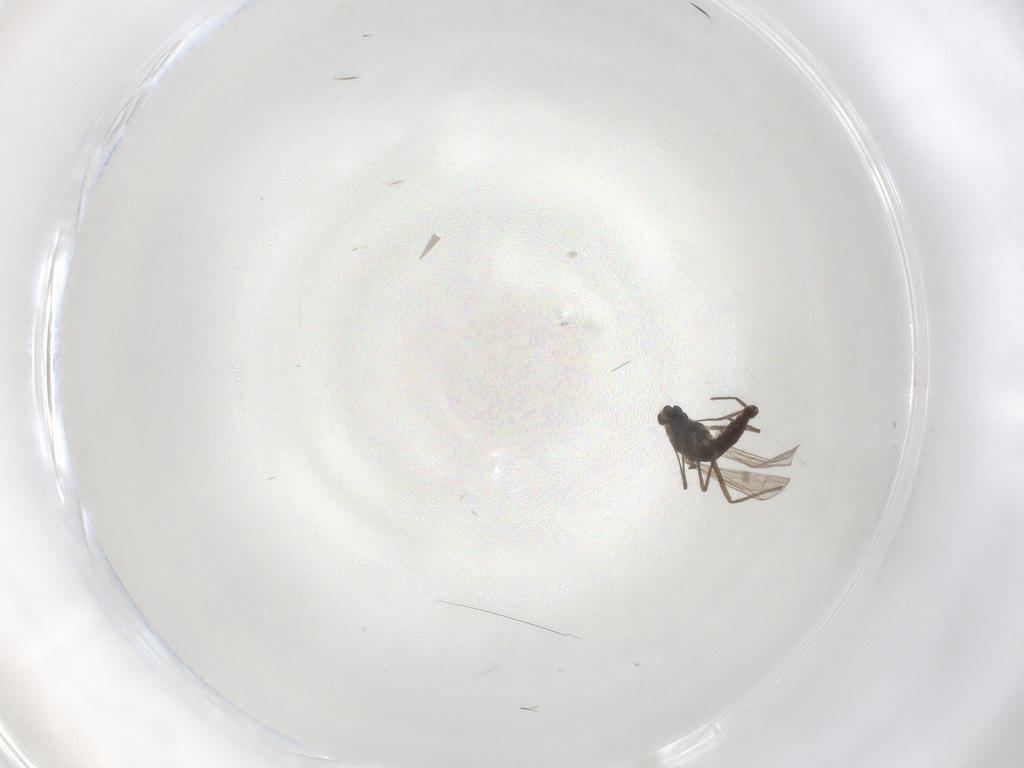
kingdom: Animalia
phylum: Arthropoda
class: Insecta
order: Diptera
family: Chironomidae
